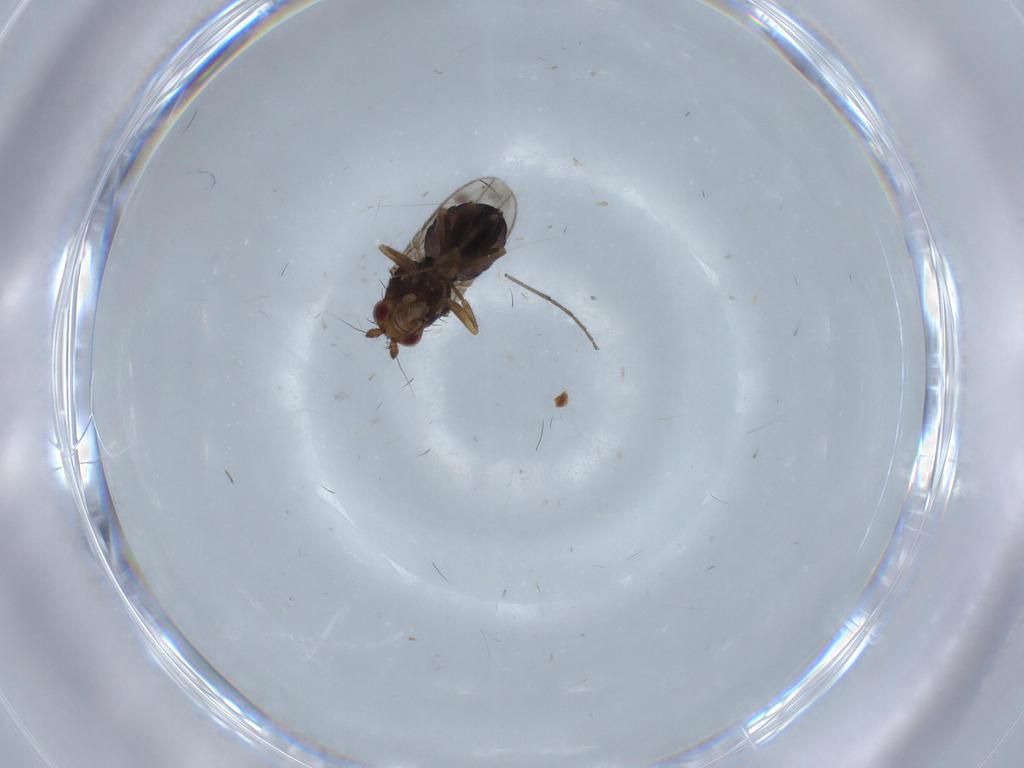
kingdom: Animalia
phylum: Arthropoda
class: Insecta
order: Diptera
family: Sphaeroceridae
